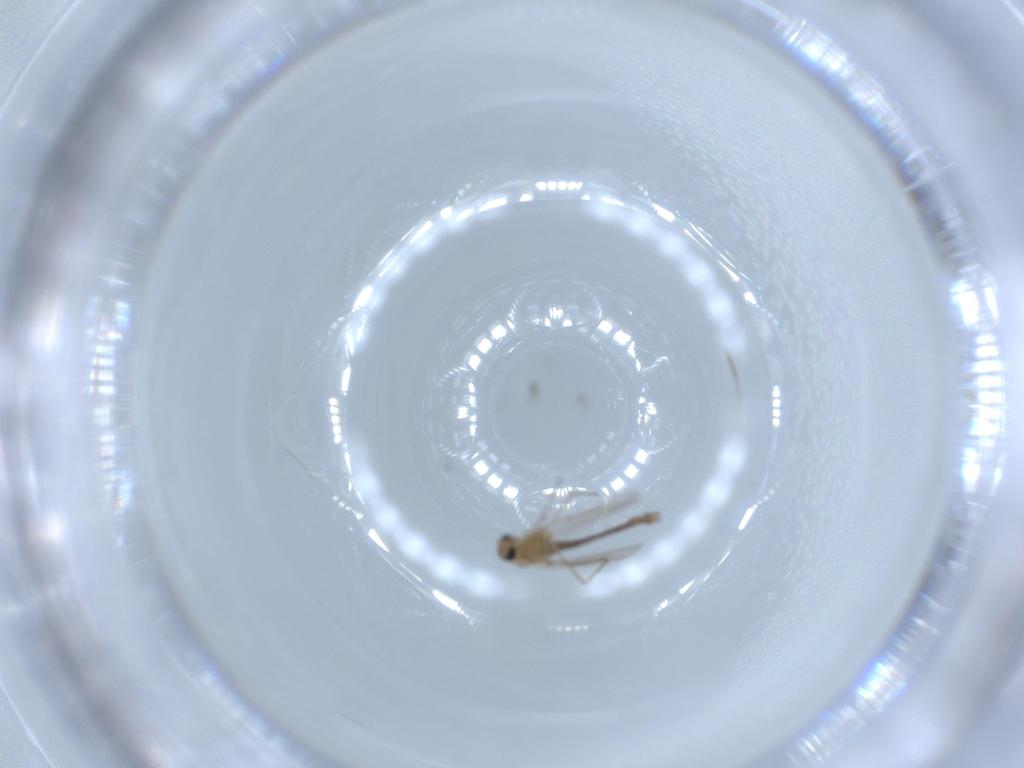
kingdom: Animalia
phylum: Arthropoda
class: Insecta
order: Diptera
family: Chironomidae
